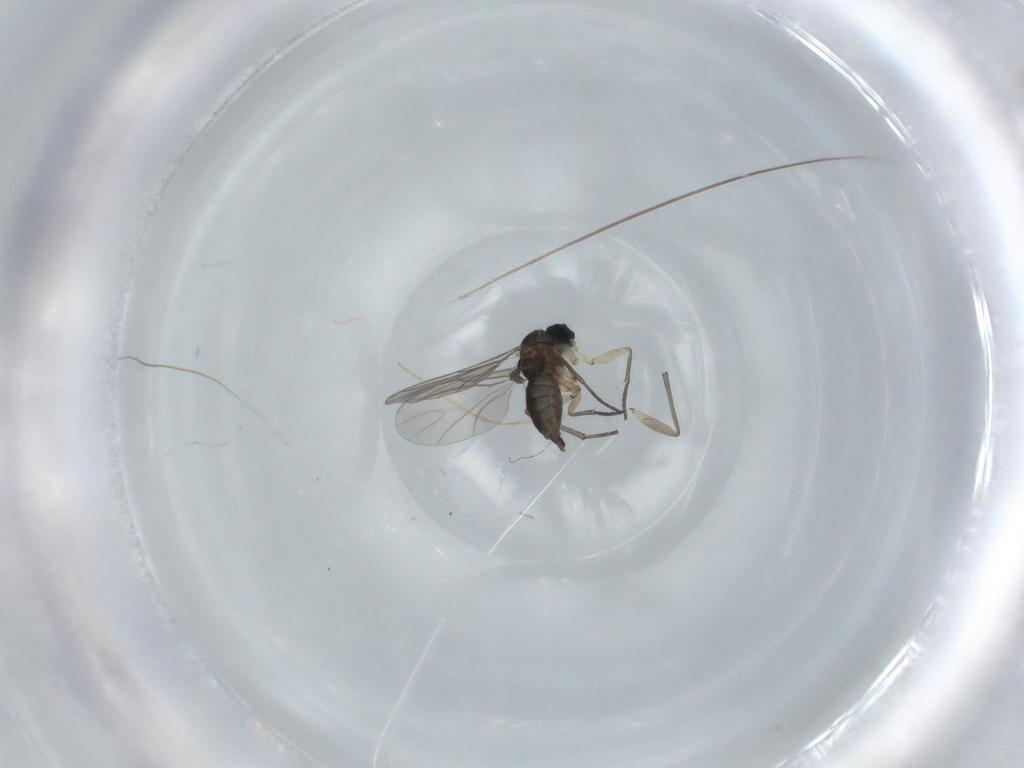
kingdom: Animalia
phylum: Arthropoda
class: Insecta
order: Diptera
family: Sciaridae
